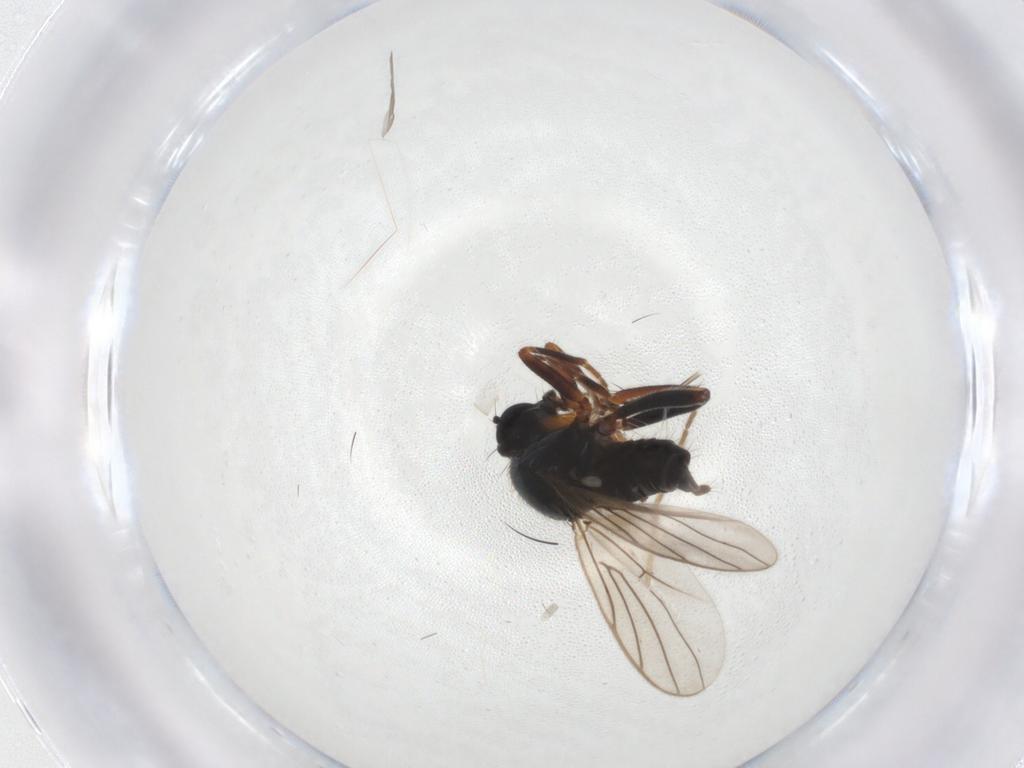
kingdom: Animalia
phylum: Arthropoda
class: Insecta
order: Diptera
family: Hybotidae
